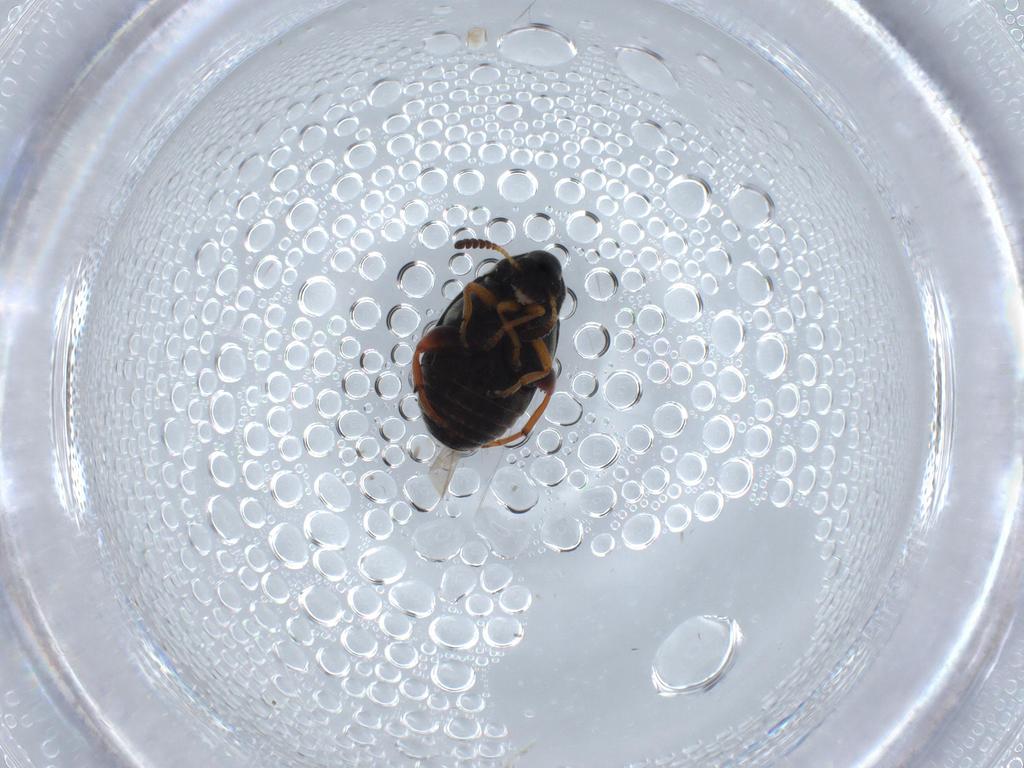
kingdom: Animalia
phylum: Arthropoda
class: Insecta
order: Coleoptera
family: Chrysomelidae
